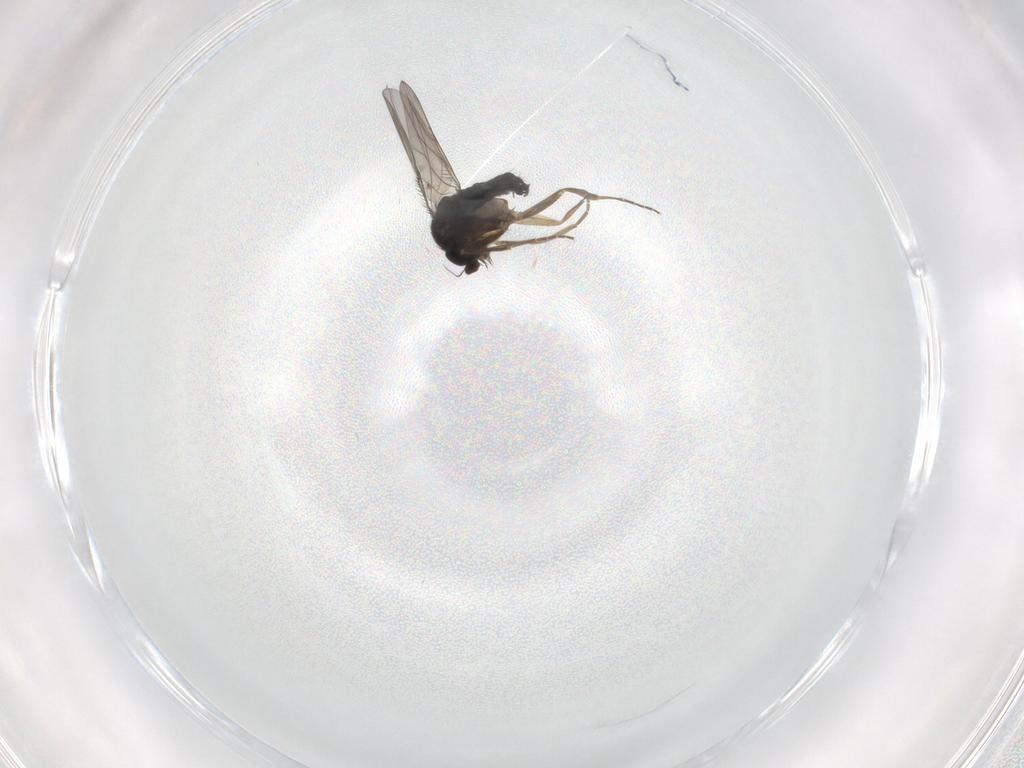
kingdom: Animalia
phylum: Arthropoda
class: Insecta
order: Diptera
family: Phoridae
